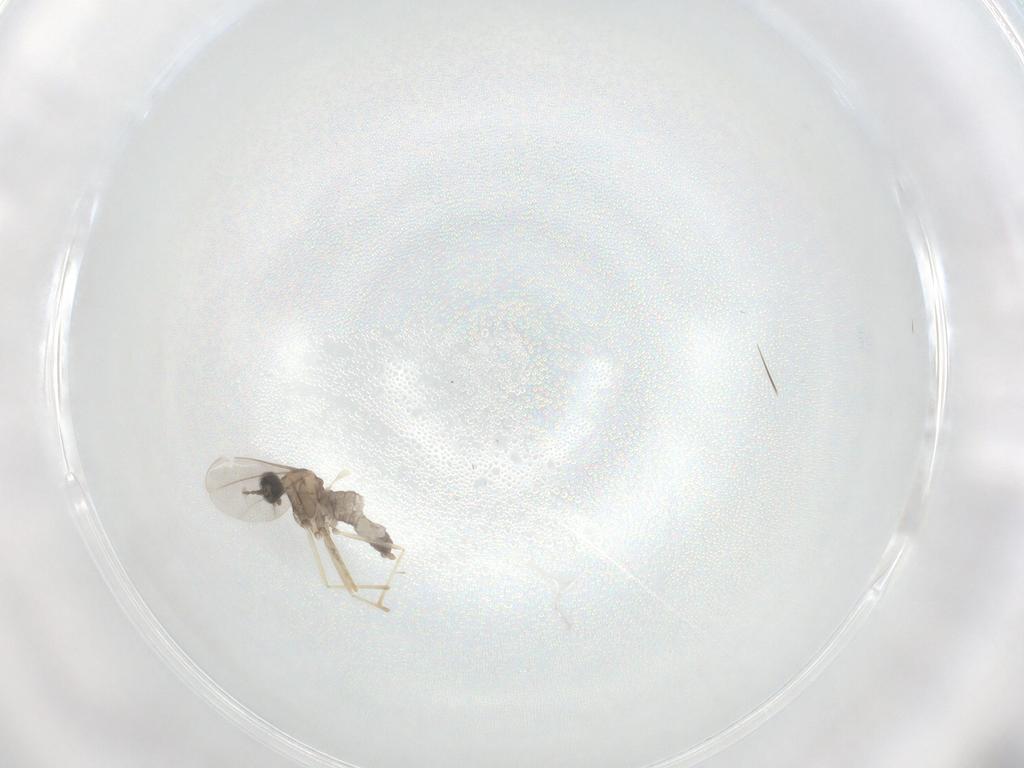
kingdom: Animalia
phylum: Arthropoda
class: Insecta
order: Diptera
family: Cecidomyiidae
